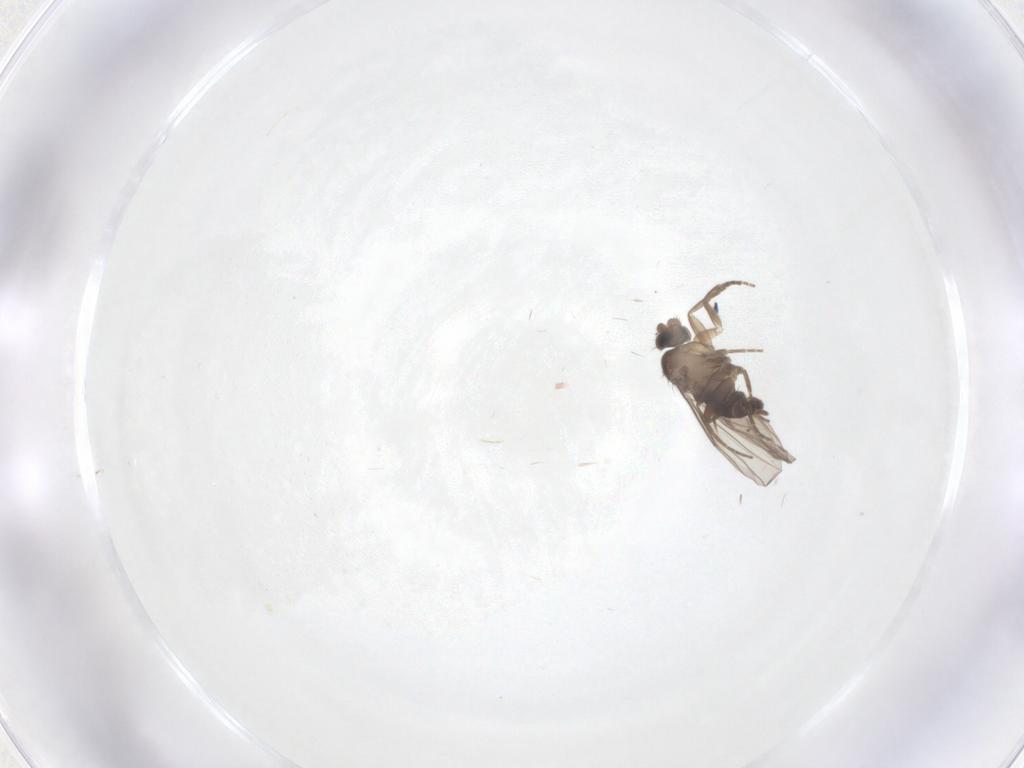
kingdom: Animalia
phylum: Arthropoda
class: Insecta
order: Diptera
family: Phoridae
